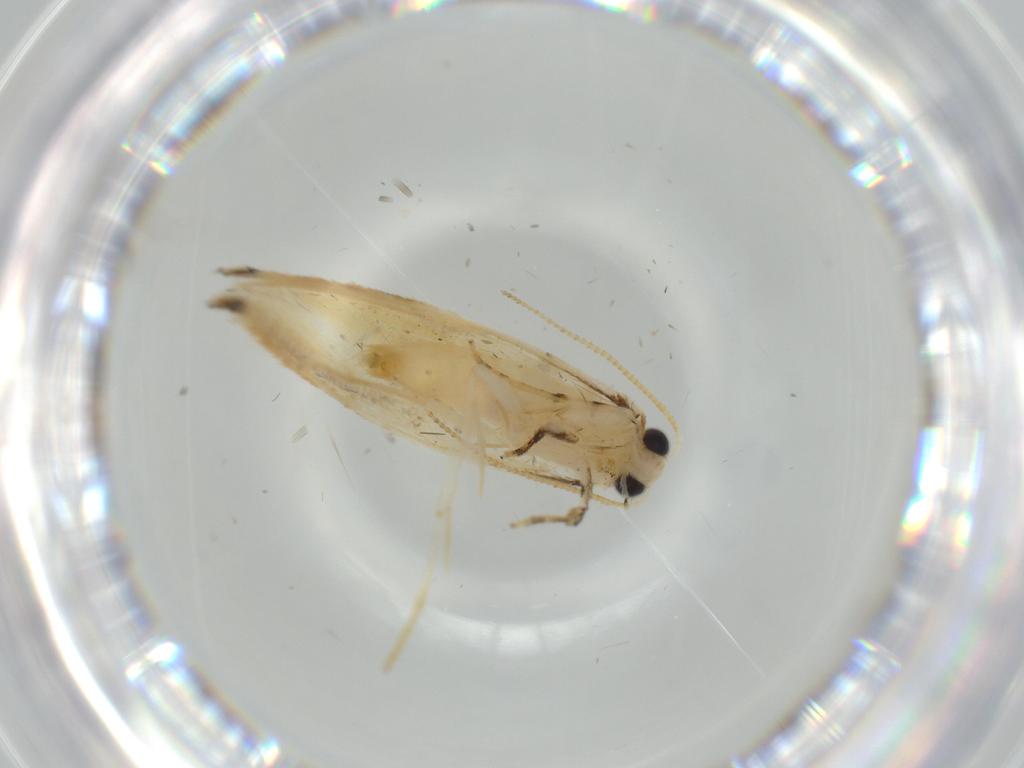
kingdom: Animalia
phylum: Arthropoda
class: Insecta
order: Lepidoptera
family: Tineidae
